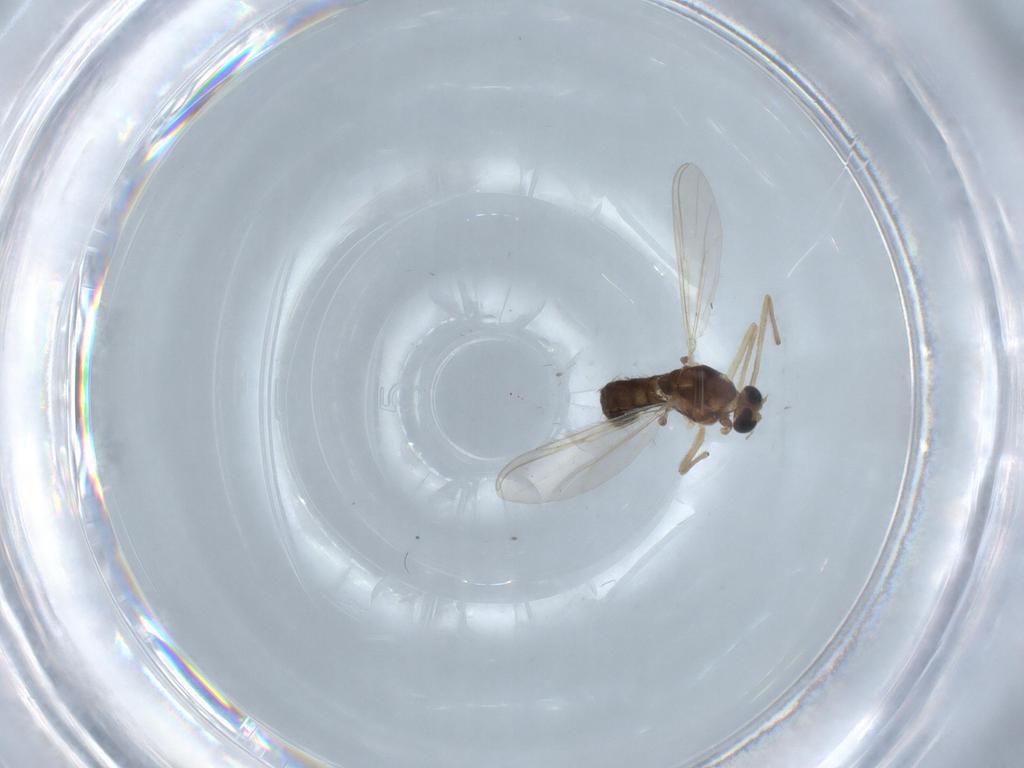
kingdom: Animalia
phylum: Arthropoda
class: Insecta
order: Diptera
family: Chironomidae
